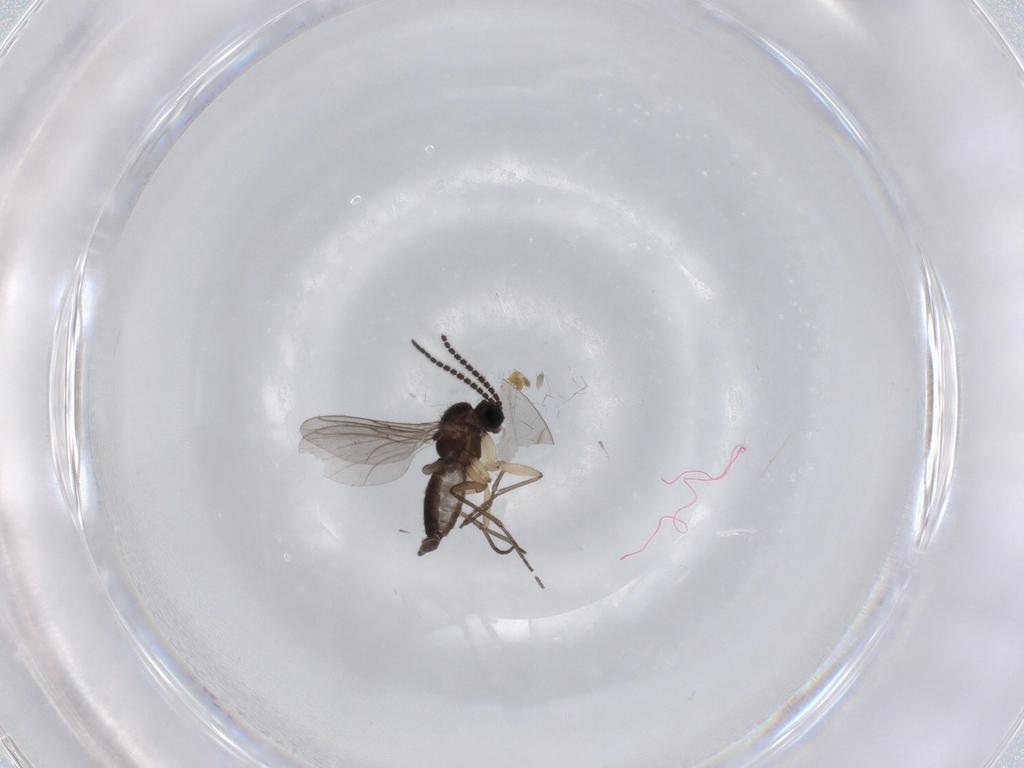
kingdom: Animalia
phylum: Arthropoda
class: Insecta
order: Diptera
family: Sciaridae
